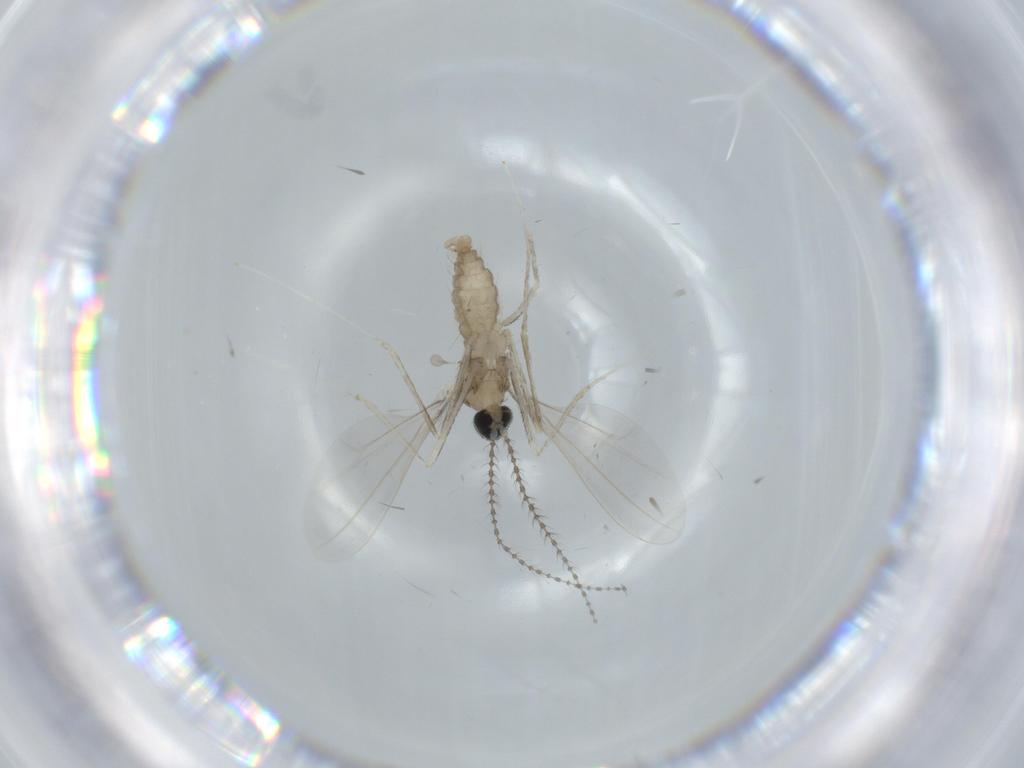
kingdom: Animalia
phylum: Arthropoda
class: Insecta
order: Diptera
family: Cecidomyiidae
